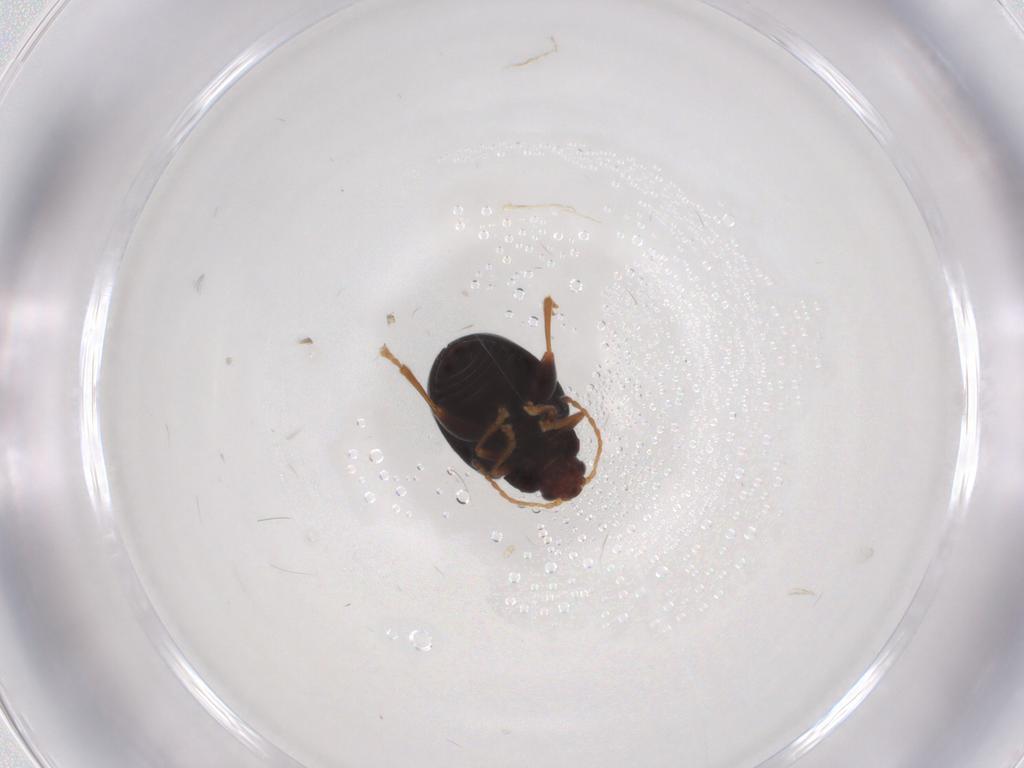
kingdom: Animalia
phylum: Arthropoda
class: Insecta
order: Coleoptera
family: Chrysomelidae
